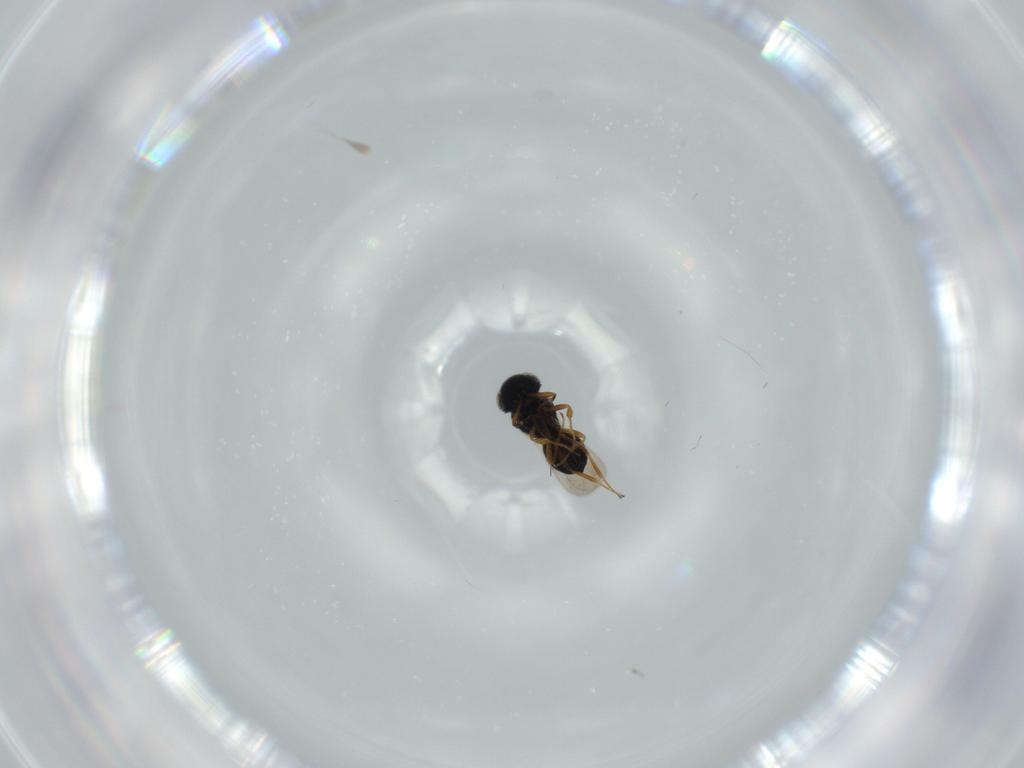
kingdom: Animalia
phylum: Arthropoda
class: Insecta
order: Hymenoptera
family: Scelionidae
